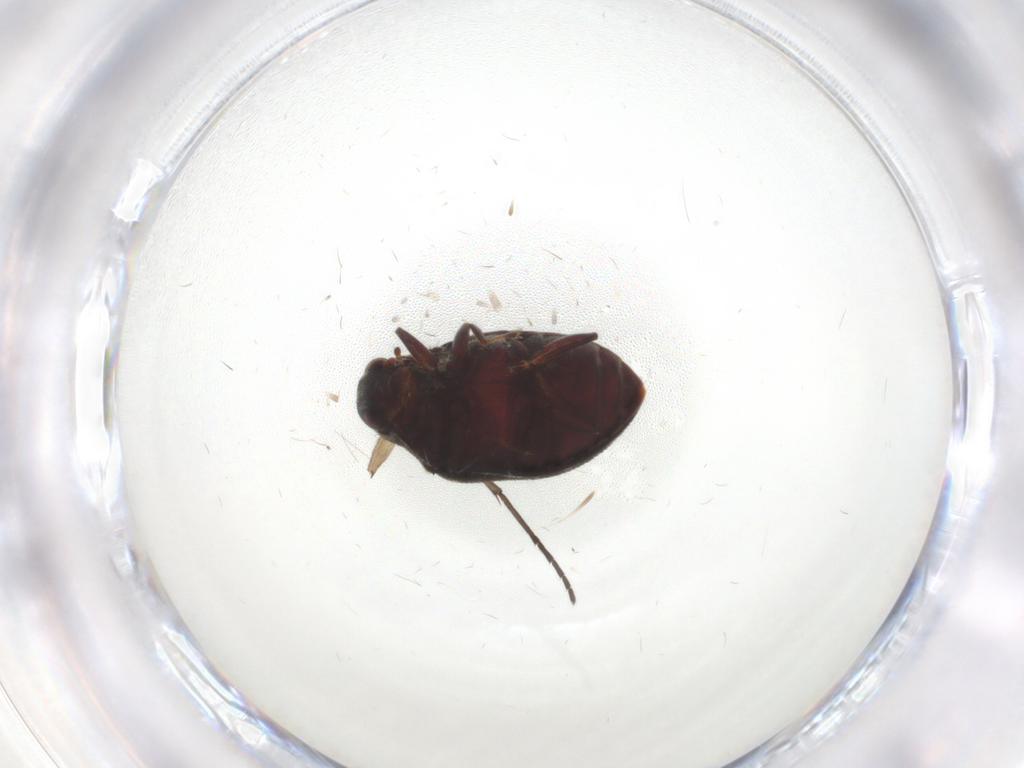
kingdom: Animalia
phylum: Arthropoda
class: Insecta
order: Coleoptera
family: Limnichidae
